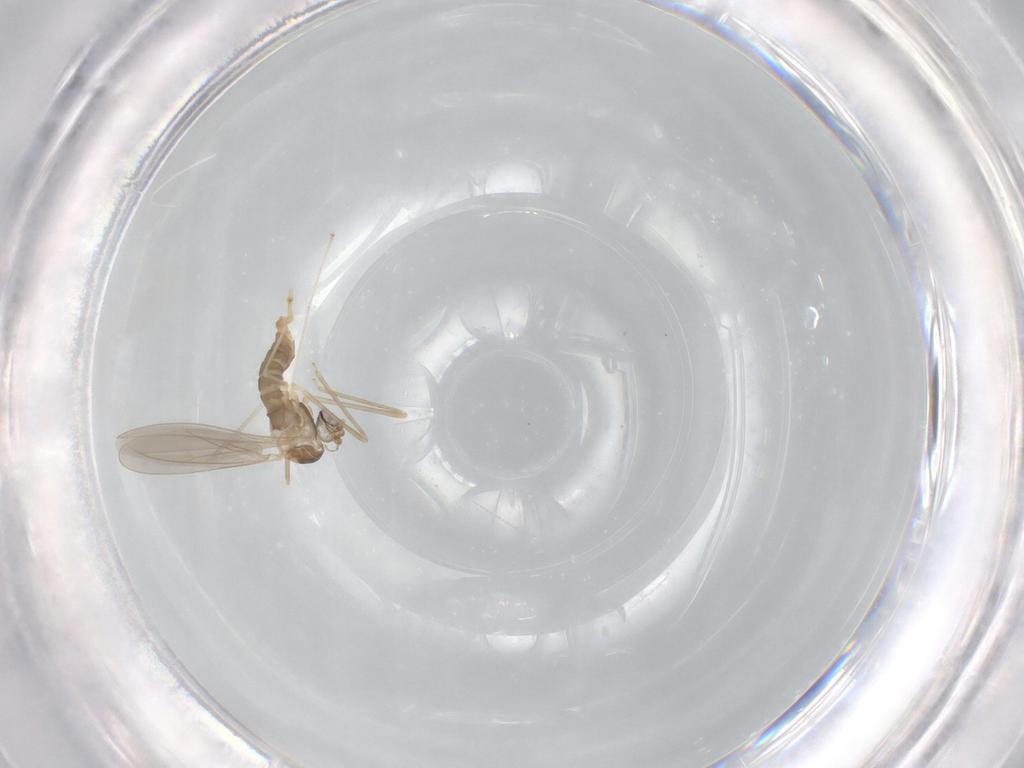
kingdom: Animalia
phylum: Arthropoda
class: Insecta
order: Diptera
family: Cecidomyiidae
